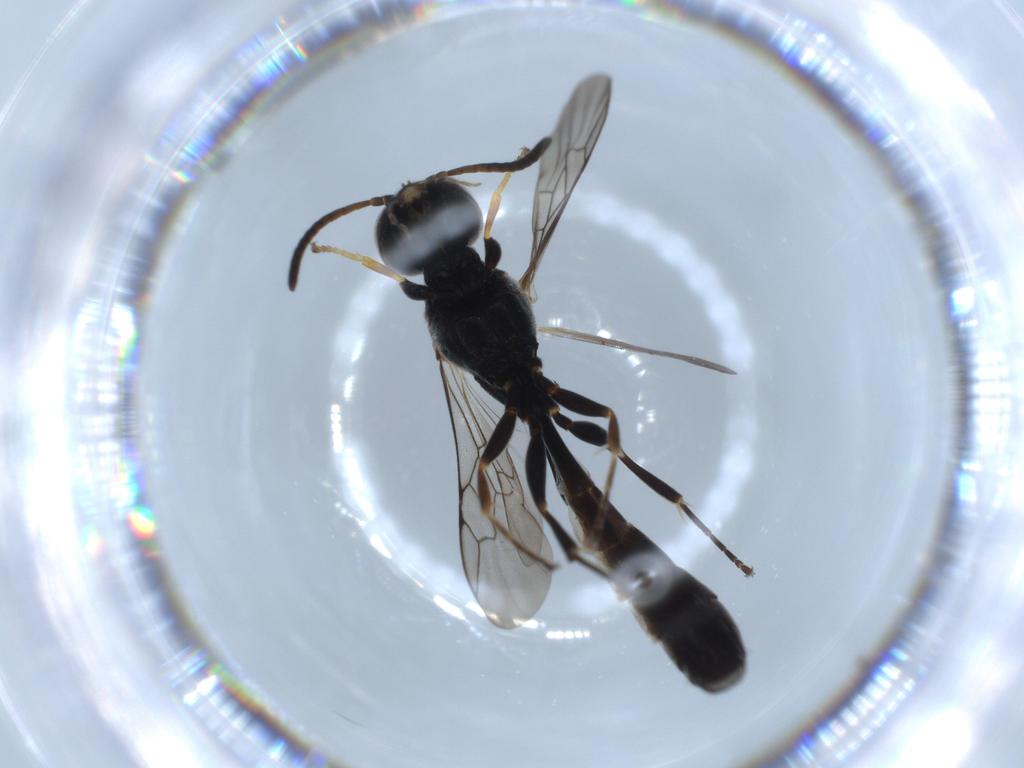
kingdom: Animalia
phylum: Arthropoda
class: Insecta
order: Hymenoptera
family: Crabronidae
